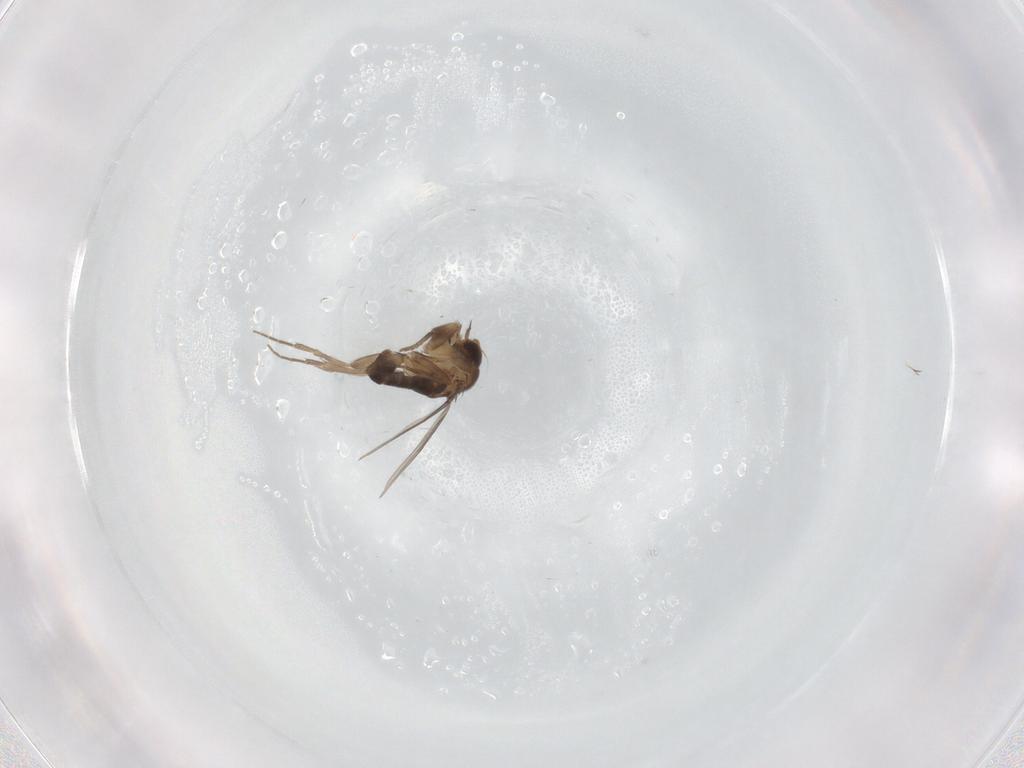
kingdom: Animalia
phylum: Arthropoda
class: Insecta
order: Diptera
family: Phoridae
